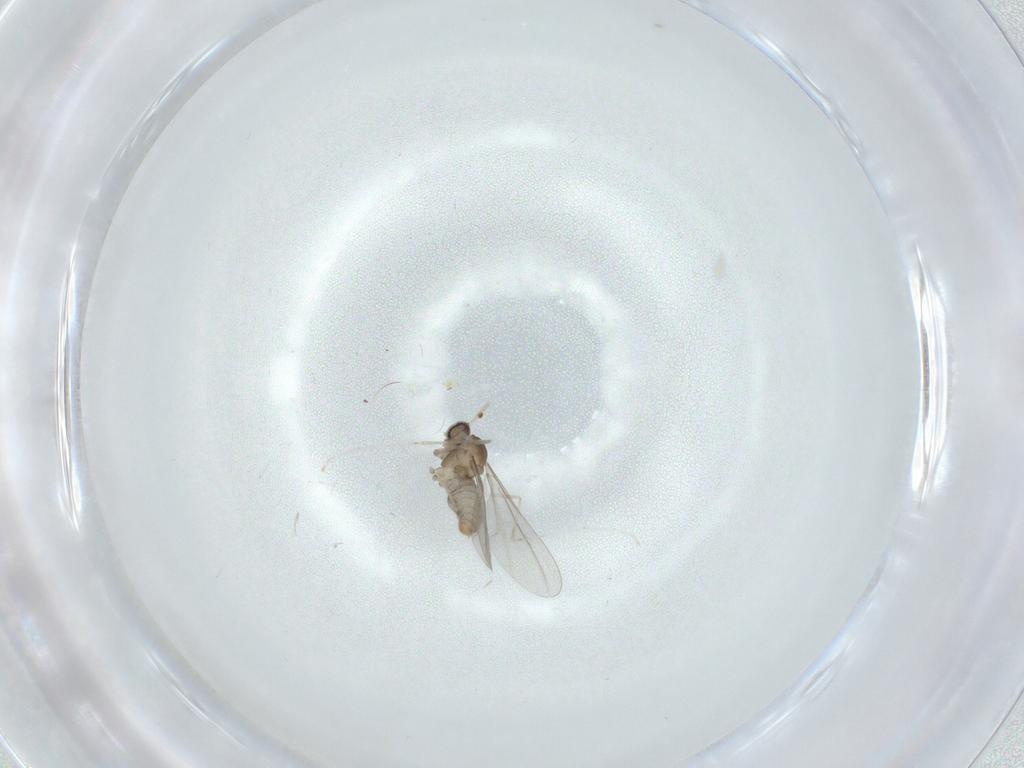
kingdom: Animalia
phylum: Arthropoda
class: Insecta
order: Diptera
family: Cecidomyiidae
